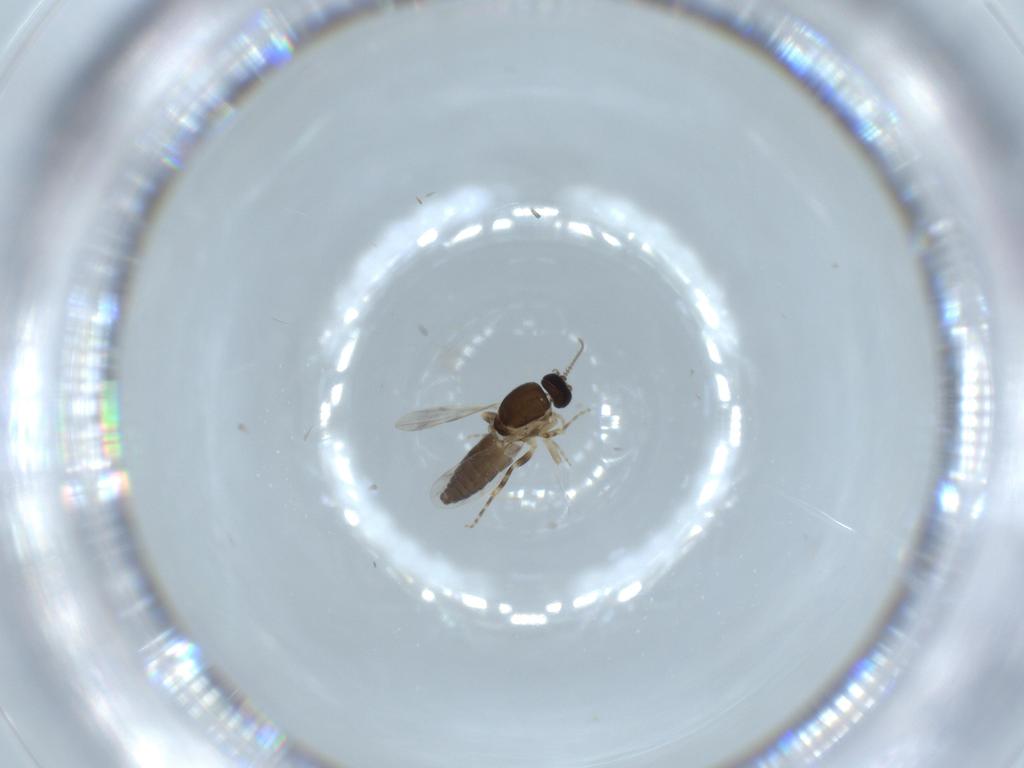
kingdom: Animalia
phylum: Arthropoda
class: Insecta
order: Diptera
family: Ceratopogonidae
